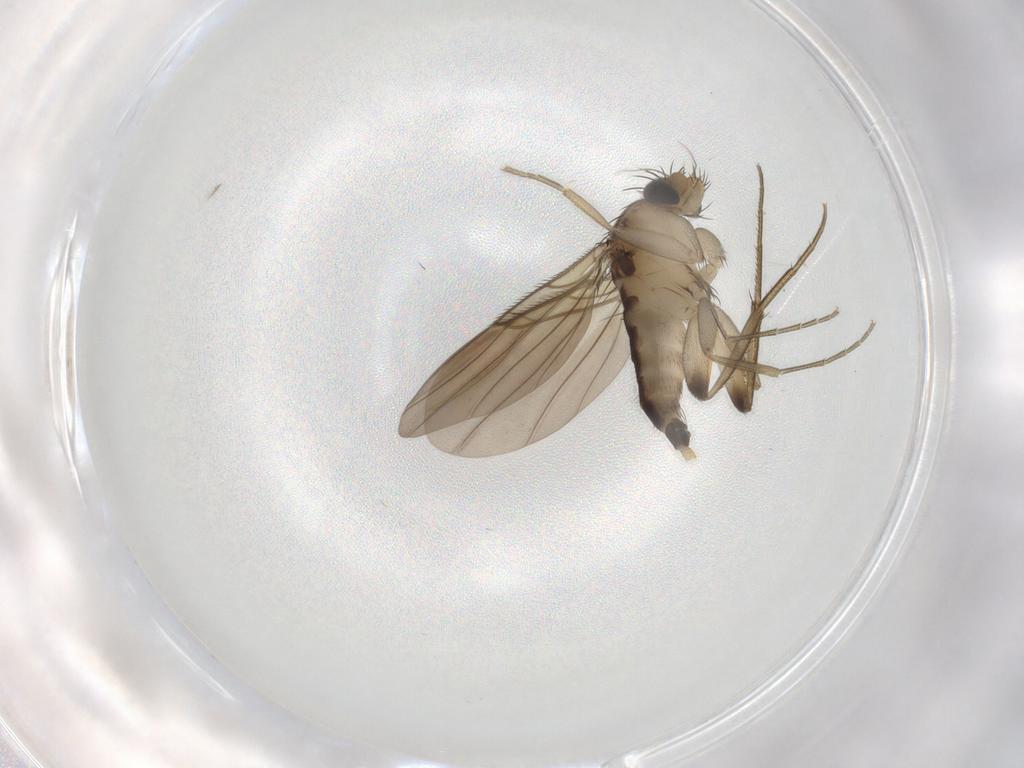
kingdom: Animalia
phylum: Arthropoda
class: Insecta
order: Diptera
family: Phoridae
